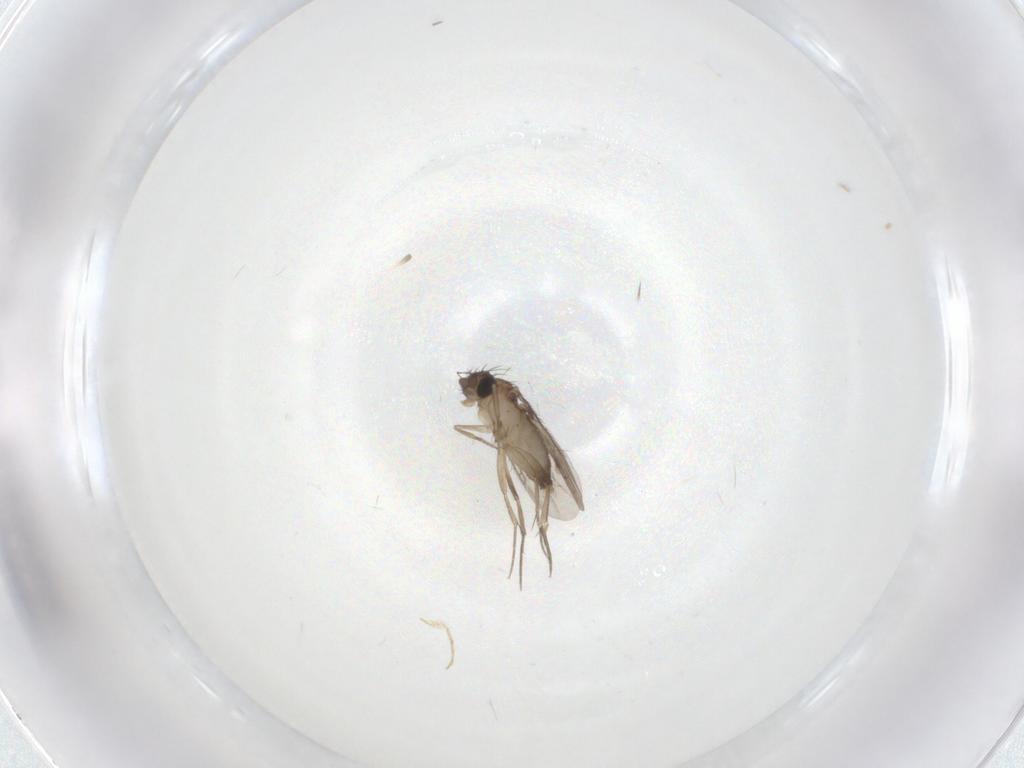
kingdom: Animalia
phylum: Arthropoda
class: Insecta
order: Diptera
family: Phoridae
